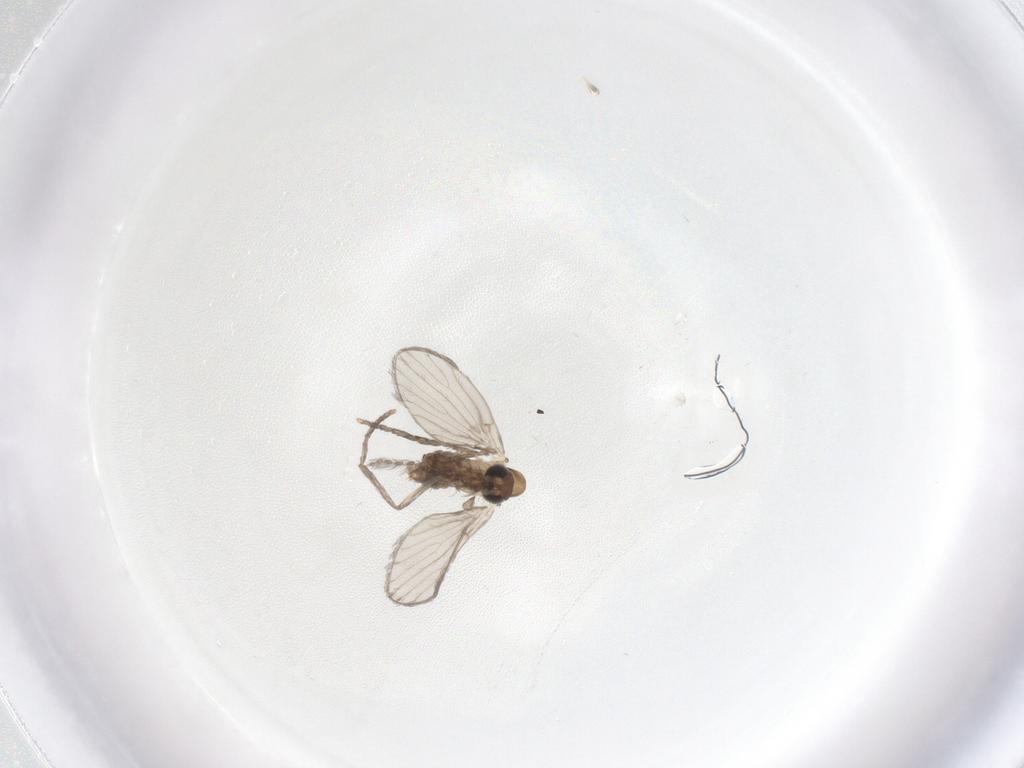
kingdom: Animalia
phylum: Arthropoda
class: Insecta
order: Diptera
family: Psychodidae
